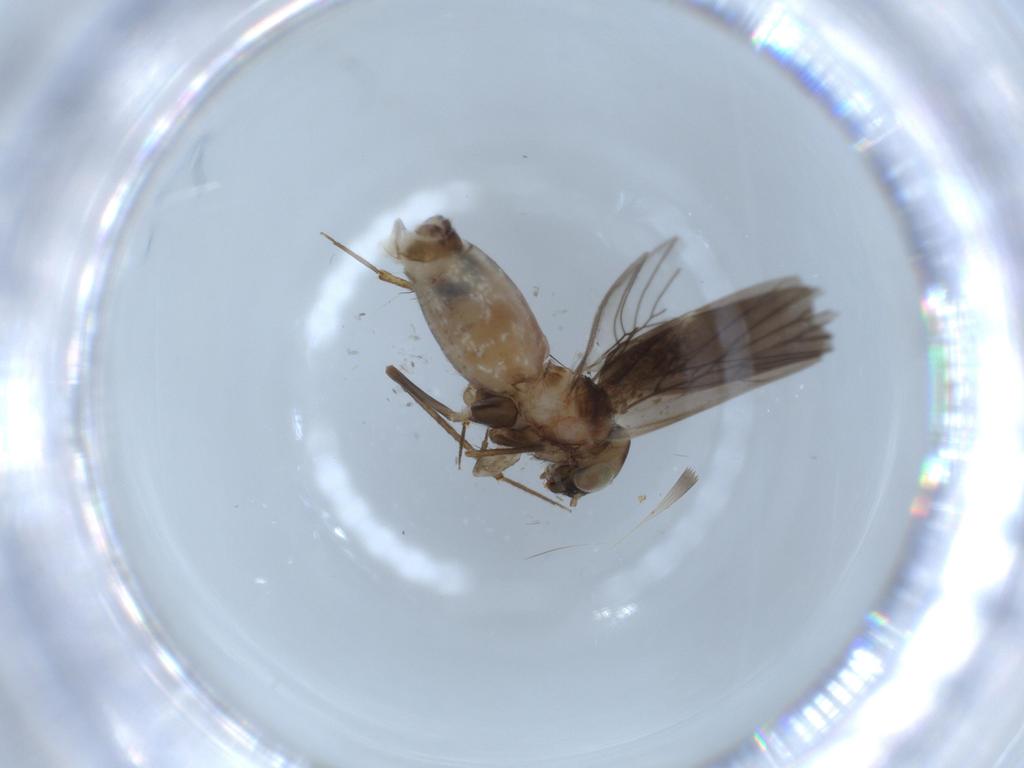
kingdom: Animalia
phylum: Arthropoda
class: Insecta
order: Psocodea
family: Lepidopsocidae
